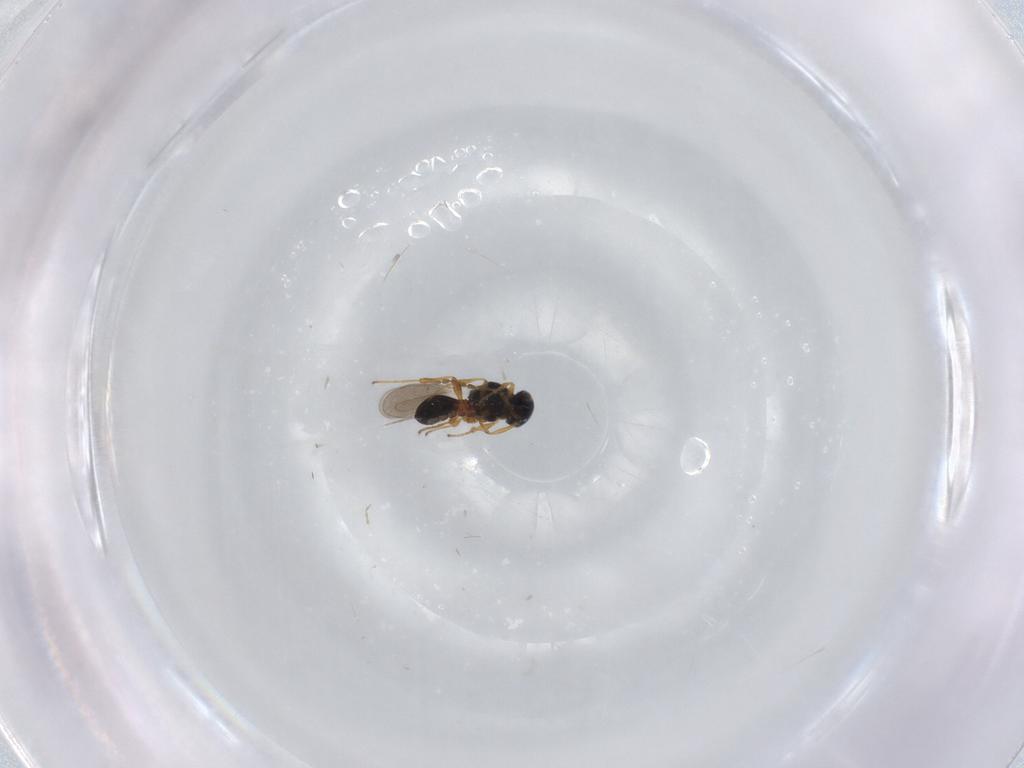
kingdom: Animalia
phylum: Arthropoda
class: Insecta
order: Hymenoptera
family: Platygastridae
